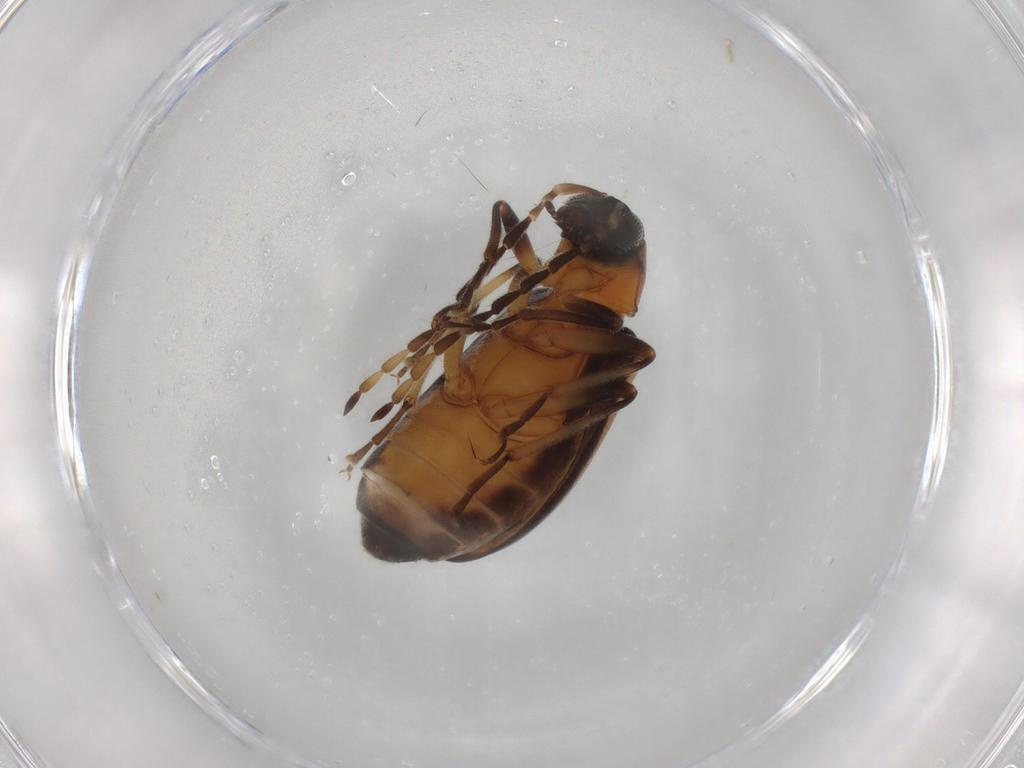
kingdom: Animalia
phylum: Arthropoda
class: Insecta
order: Coleoptera
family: Chrysomelidae
